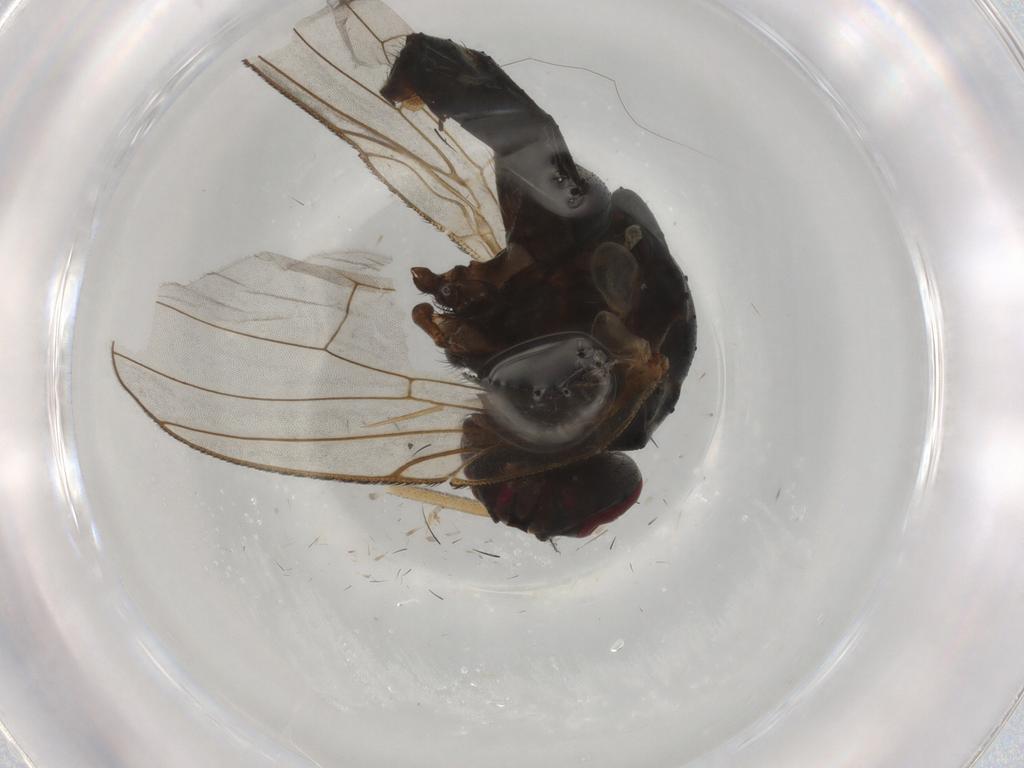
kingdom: Animalia
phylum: Arthropoda
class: Insecta
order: Diptera
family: Muscidae
